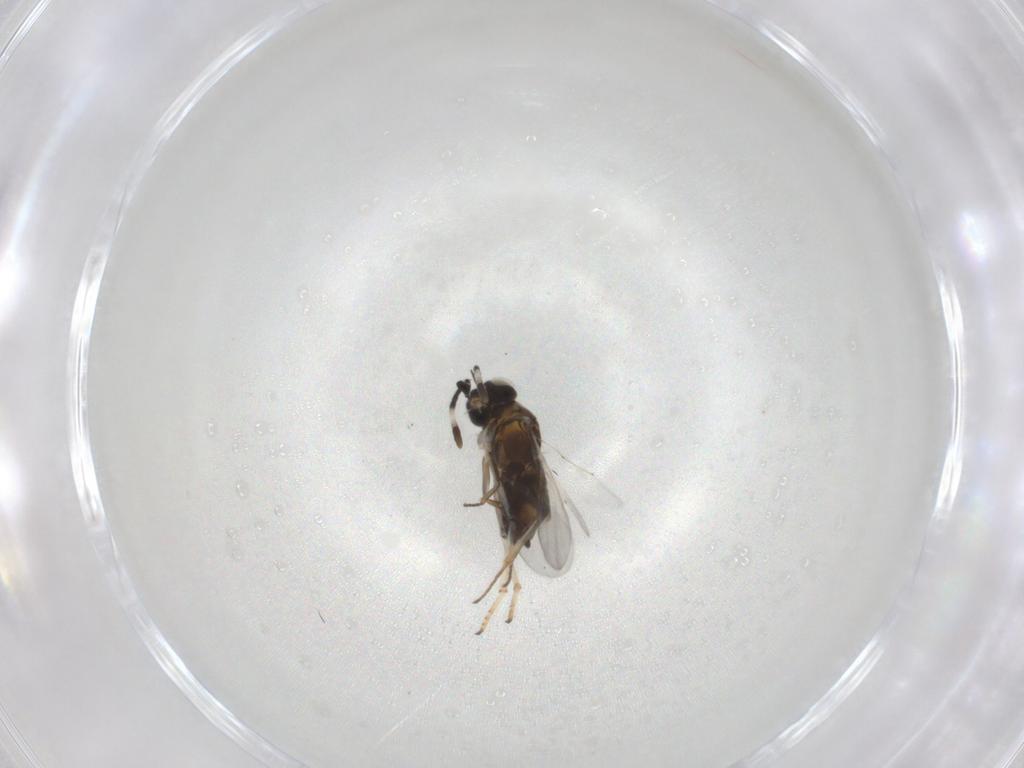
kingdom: Animalia
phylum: Arthropoda
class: Insecta
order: Hymenoptera
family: Encyrtidae
